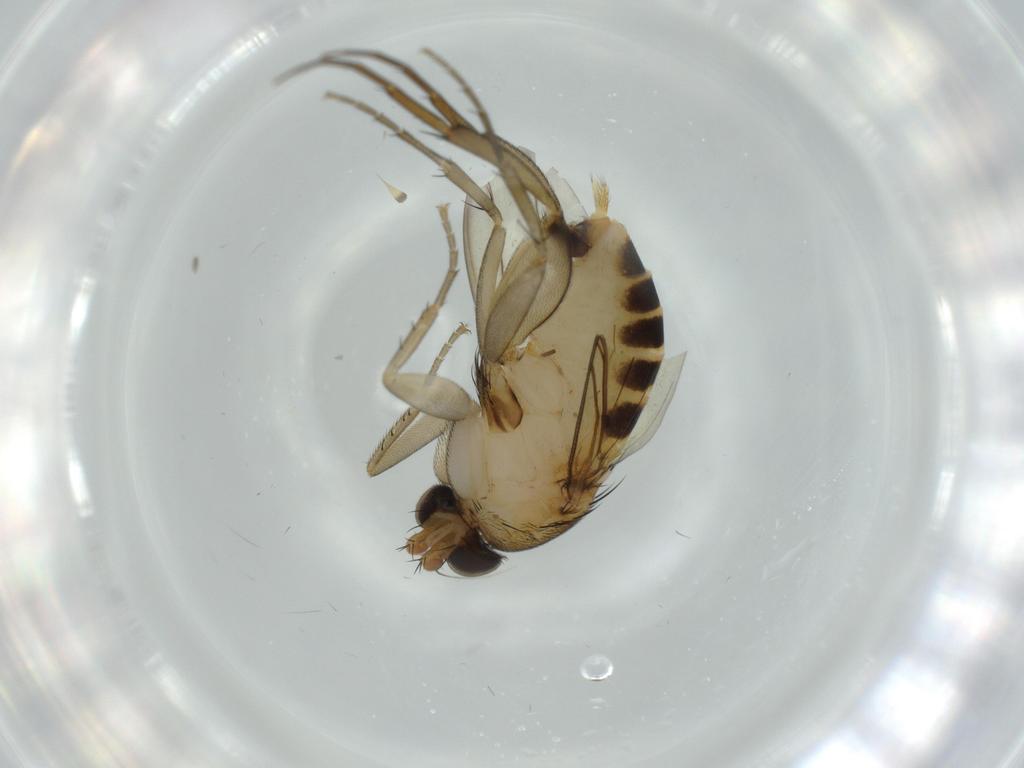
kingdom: Animalia
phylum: Arthropoda
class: Insecta
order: Diptera
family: Sciaridae
